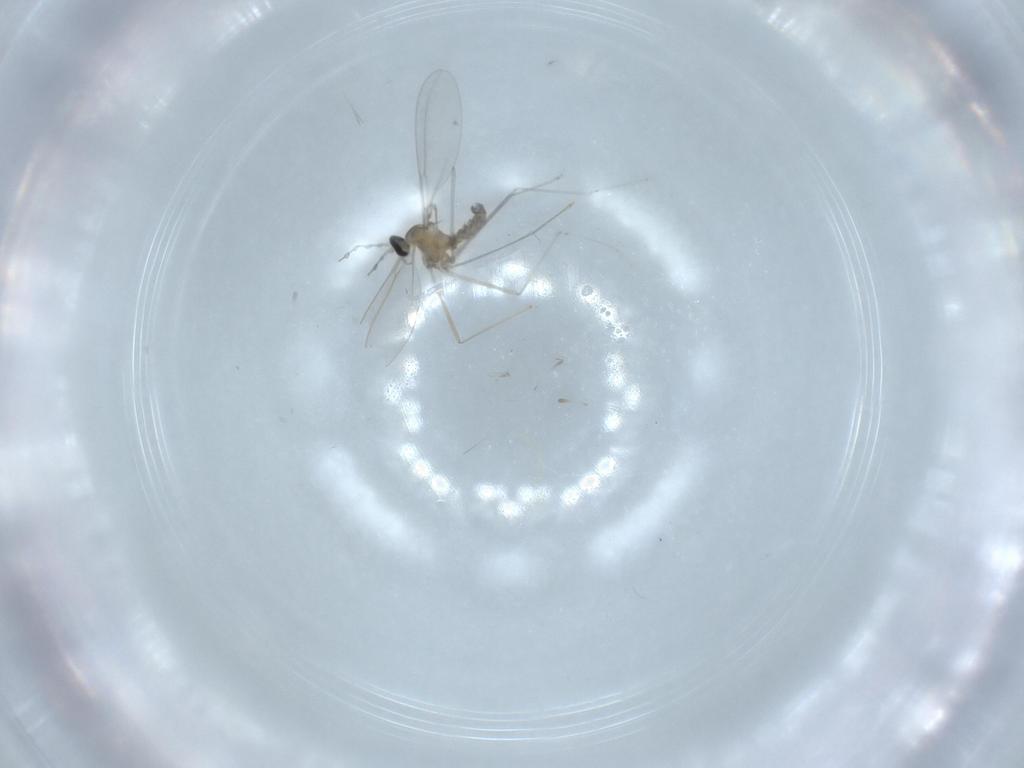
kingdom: Animalia
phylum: Arthropoda
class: Insecta
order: Diptera
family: Cecidomyiidae
